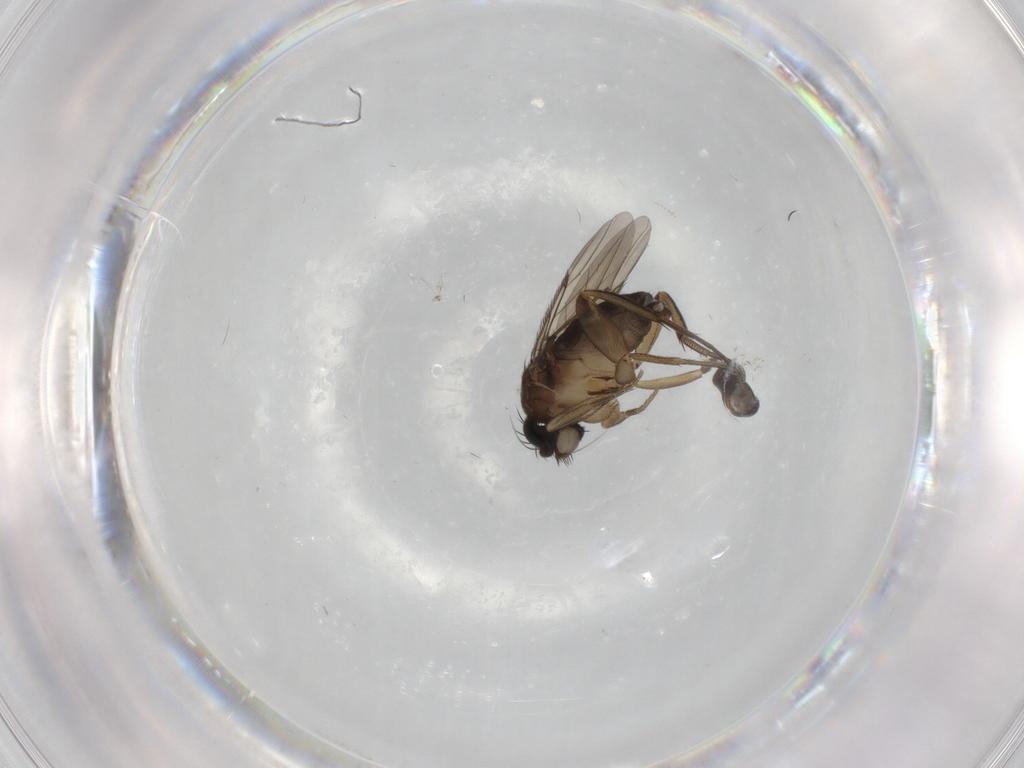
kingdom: Animalia
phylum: Arthropoda
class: Insecta
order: Diptera
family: Phoridae
